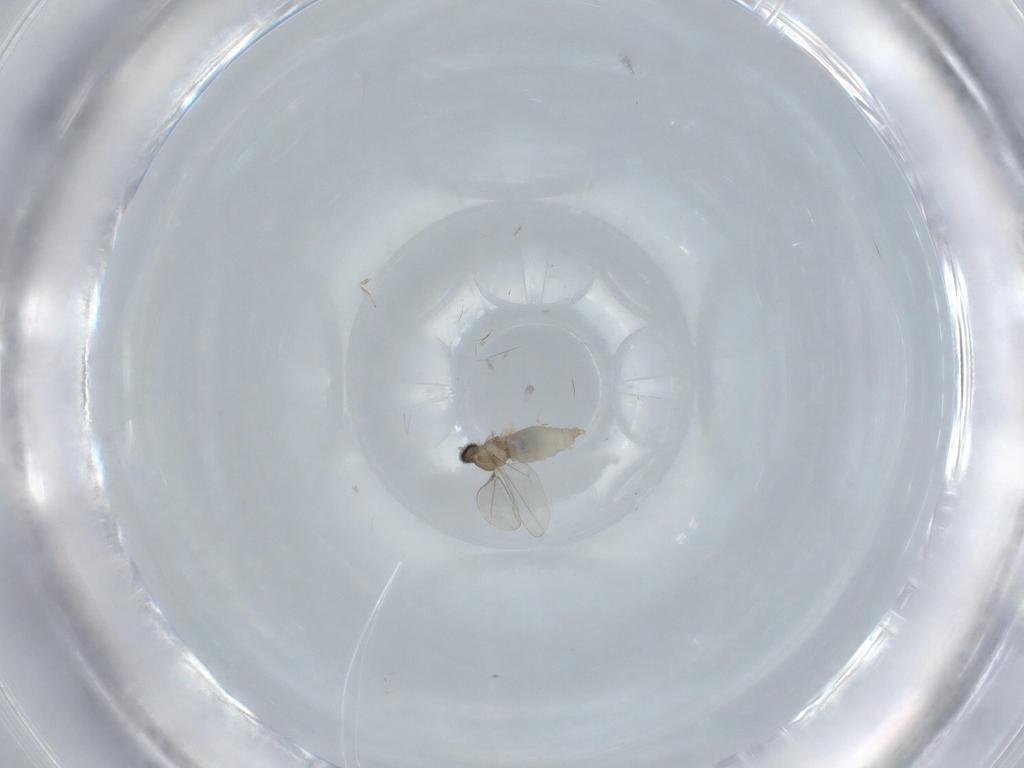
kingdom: Animalia
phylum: Arthropoda
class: Insecta
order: Diptera
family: Cecidomyiidae
